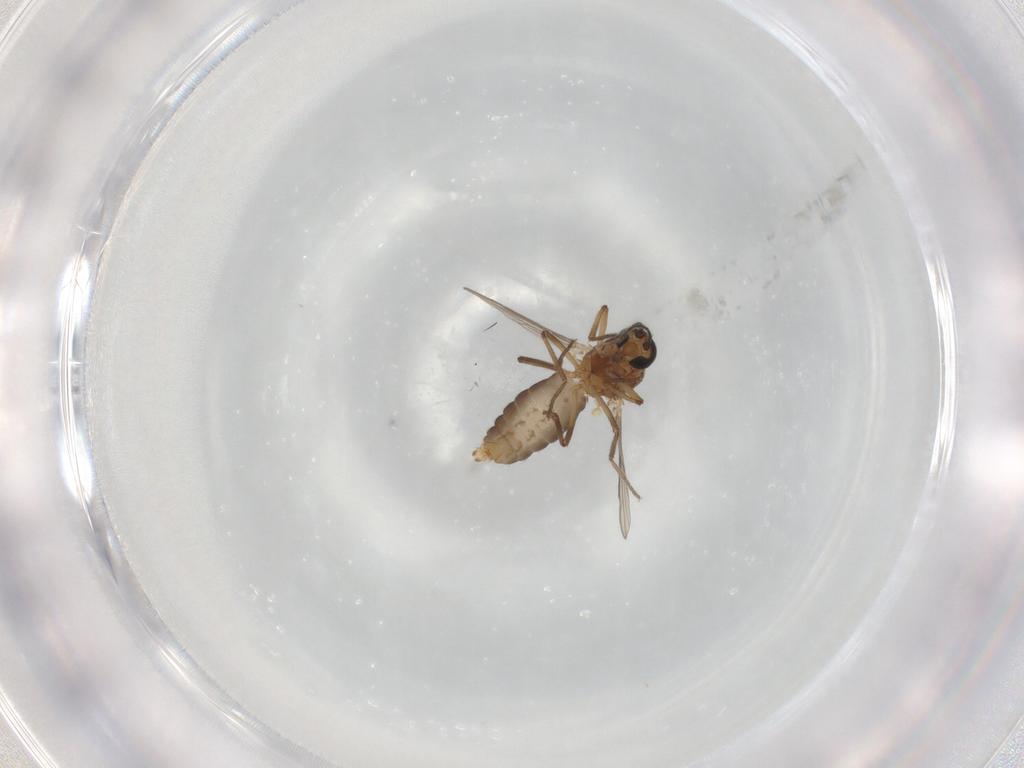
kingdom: Animalia
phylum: Arthropoda
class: Insecta
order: Diptera
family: Ceratopogonidae
